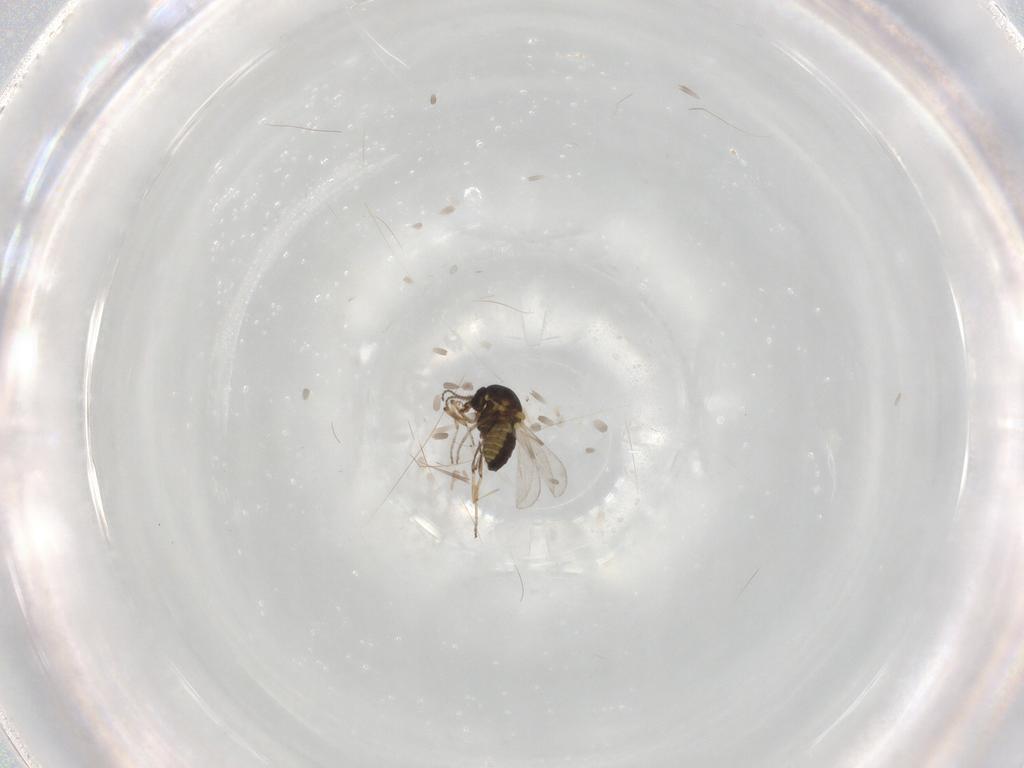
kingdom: Animalia
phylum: Arthropoda
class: Insecta
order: Diptera
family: Ceratopogonidae
